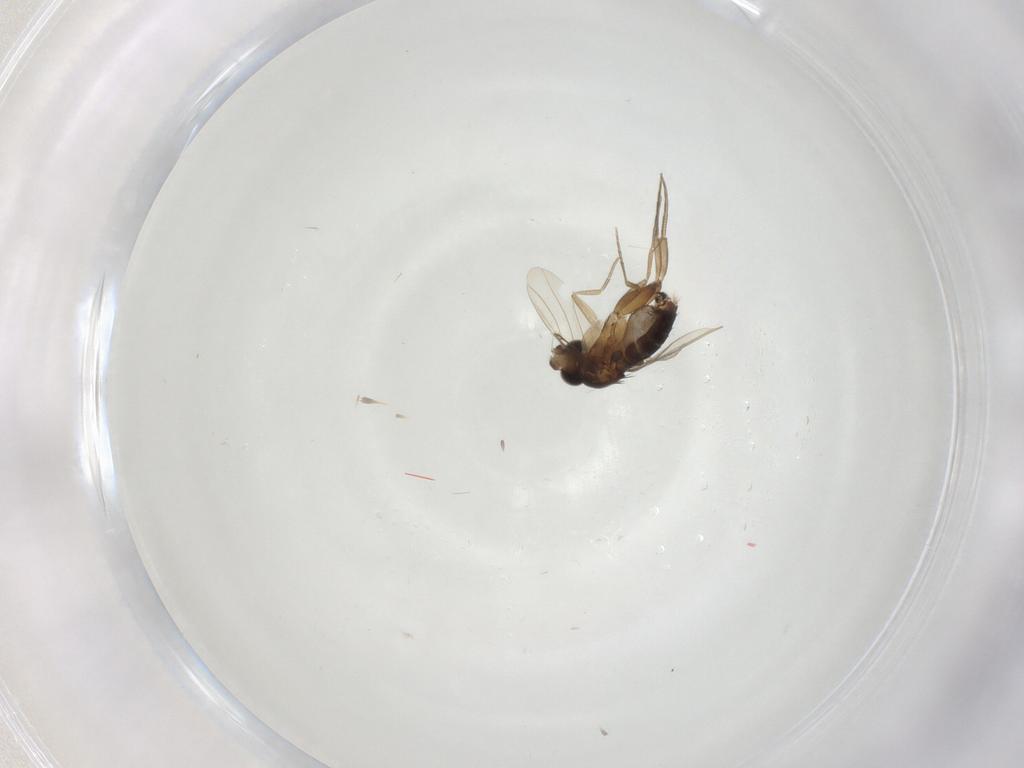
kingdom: Animalia
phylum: Arthropoda
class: Insecta
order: Diptera
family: Phoridae
